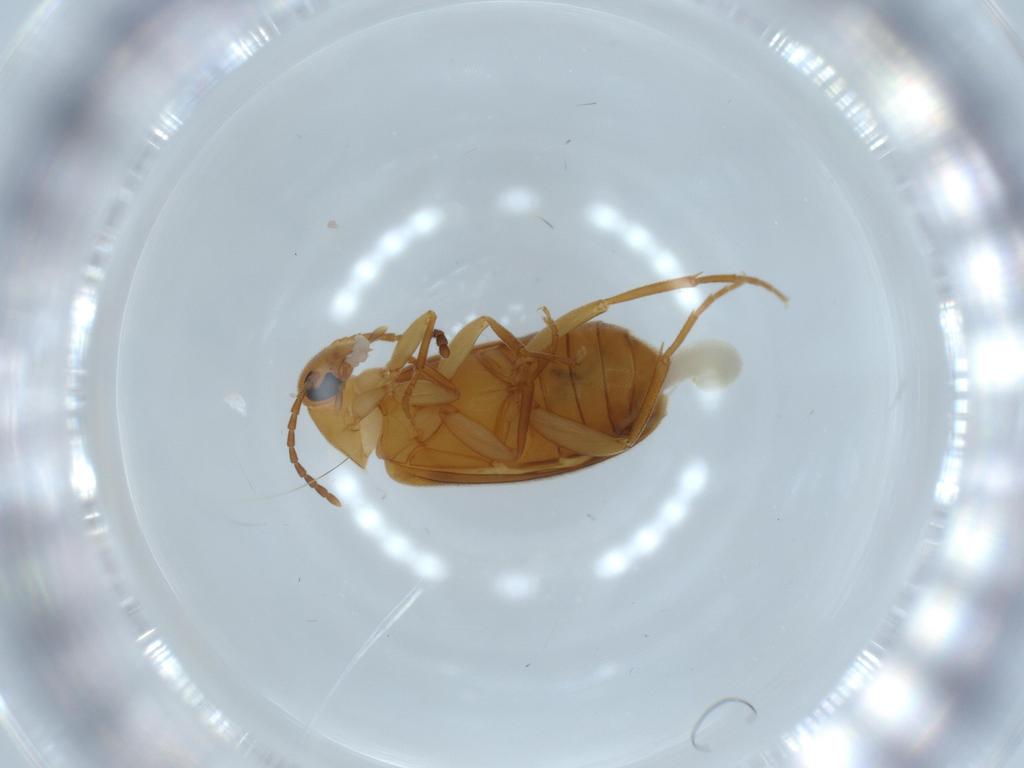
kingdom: Animalia
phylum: Arthropoda
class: Insecta
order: Coleoptera
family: Scraptiidae
